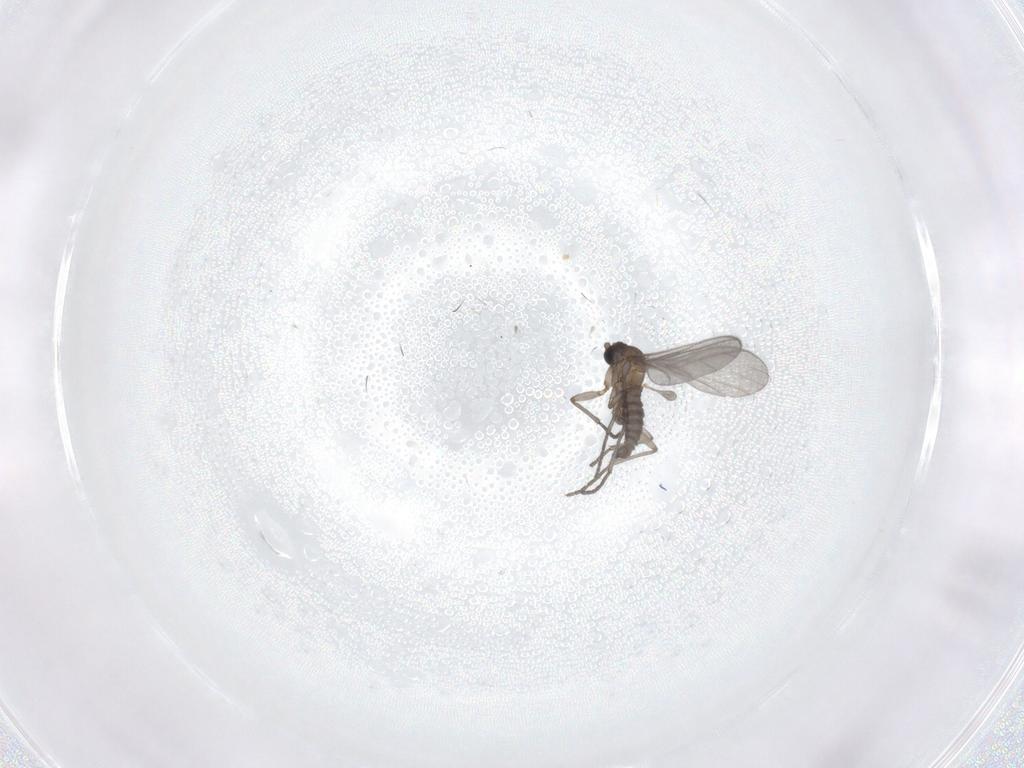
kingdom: Animalia
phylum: Arthropoda
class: Insecta
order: Diptera
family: Sciaridae
